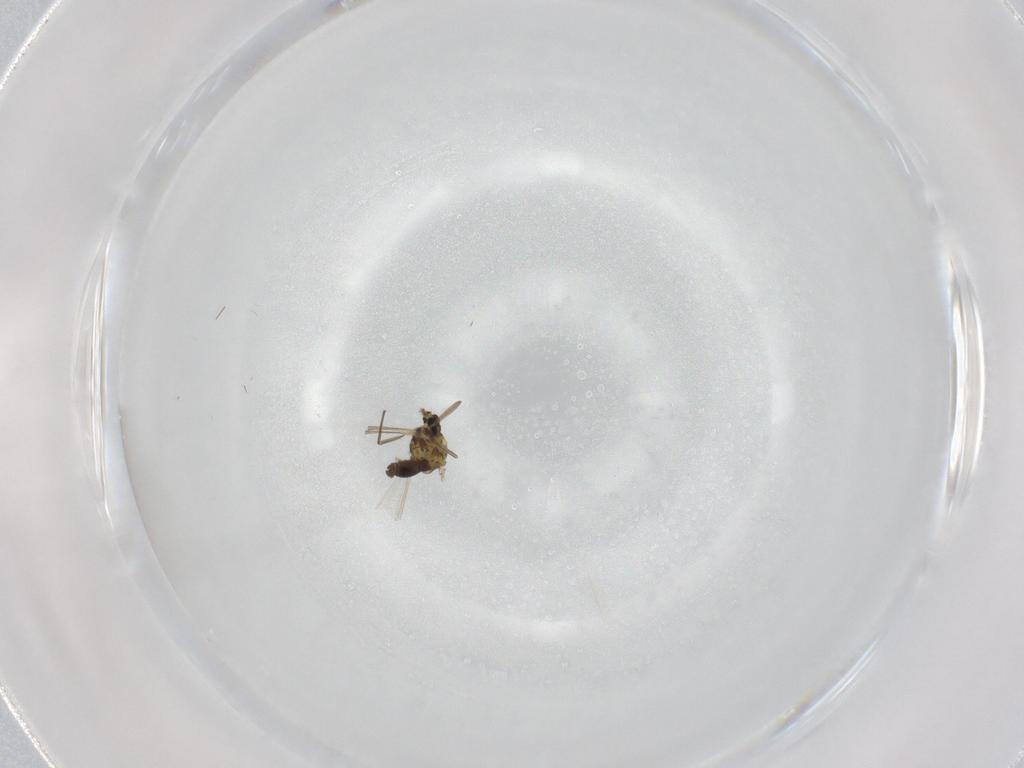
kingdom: Animalia
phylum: Arthropoda
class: Insecta
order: Diptera
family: Chironomidae
